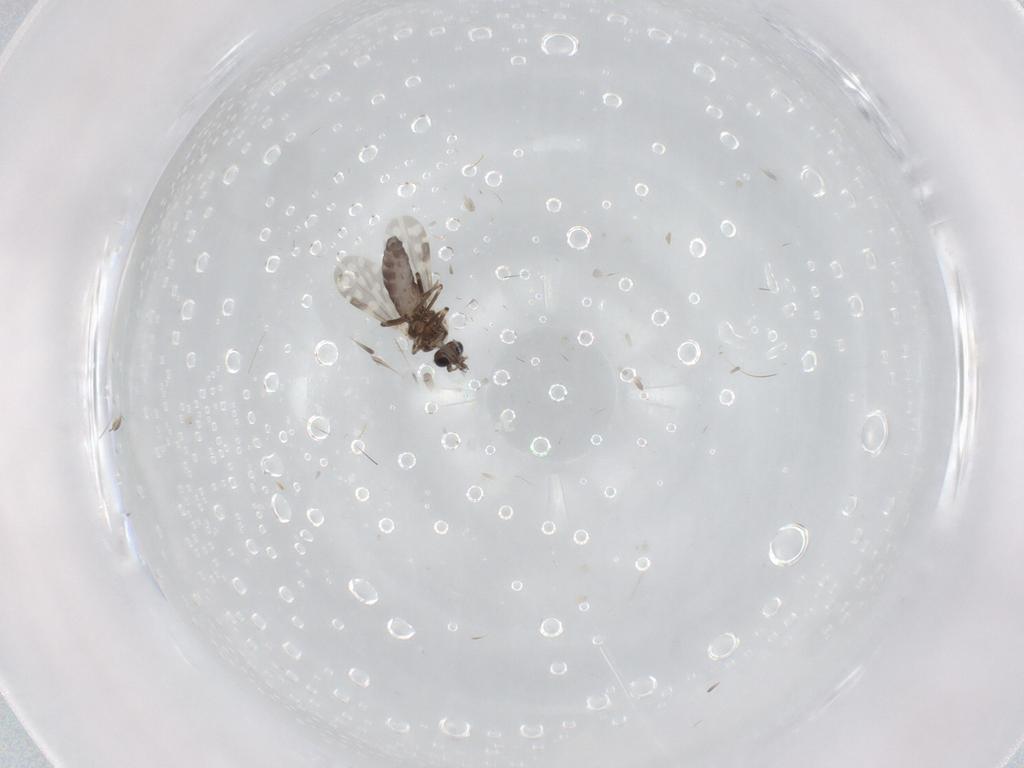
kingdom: Animalia
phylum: Arthropoda
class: Insecta
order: Diptera
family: Ceratopogonidae
